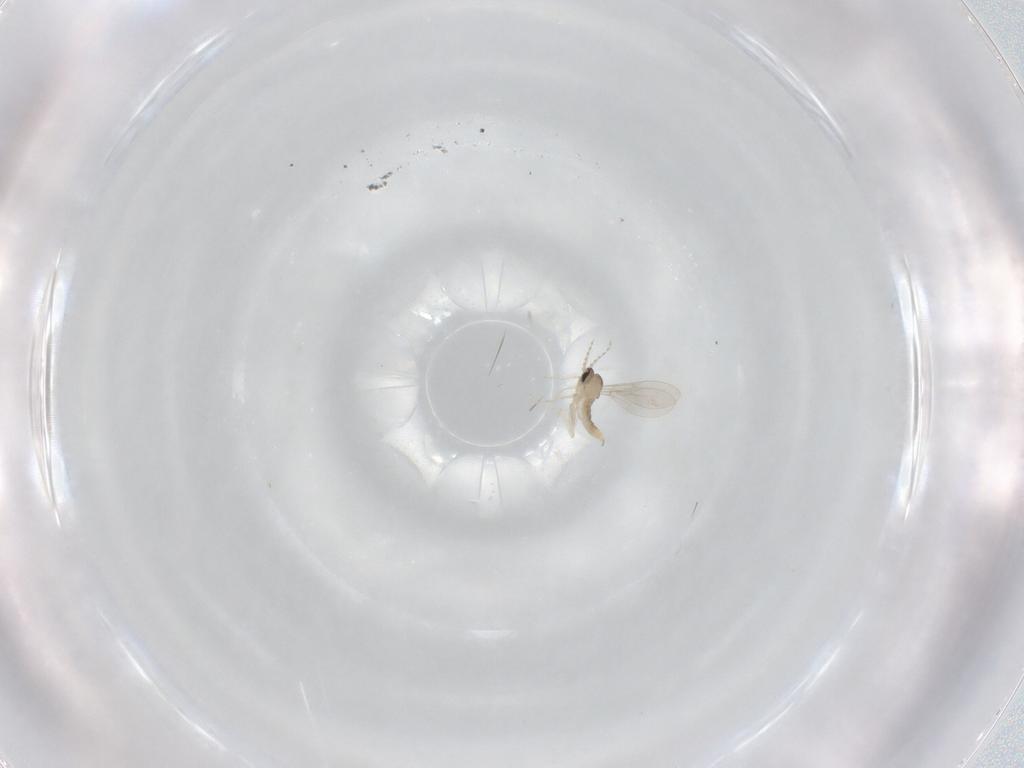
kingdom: Animalia
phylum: Arthropoda
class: Insecta
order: Diptera
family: Cecidomyiidae
